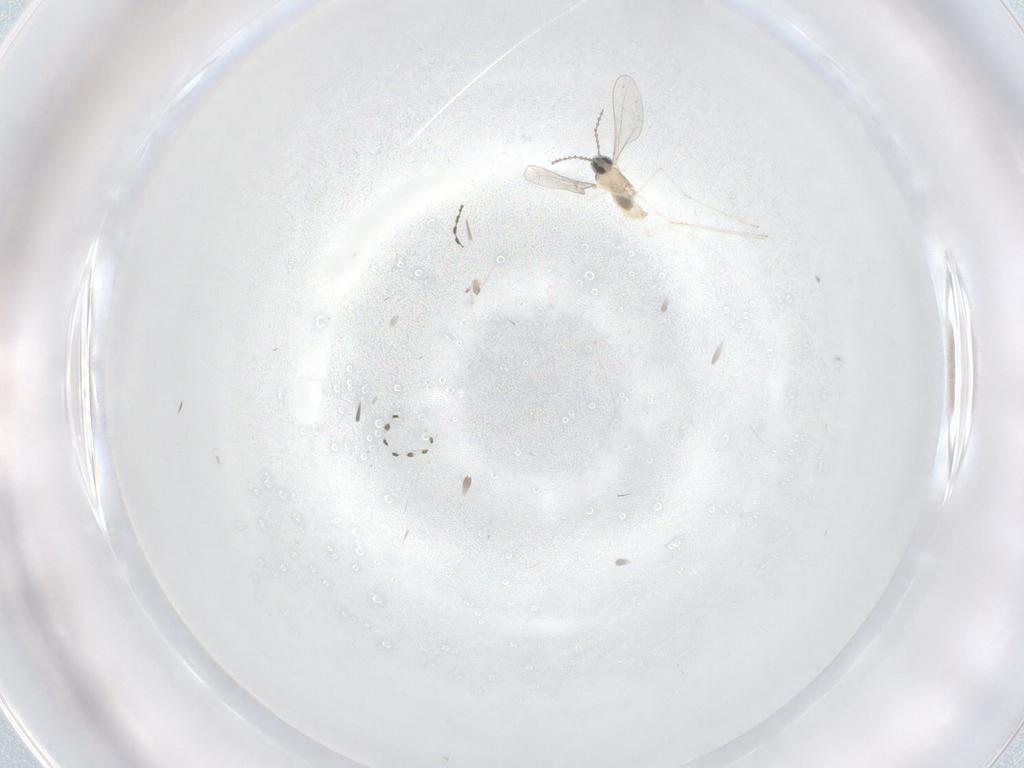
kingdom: Animalia
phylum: Arthropoda
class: Insecta
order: Diptera
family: Cecidomyiidae
